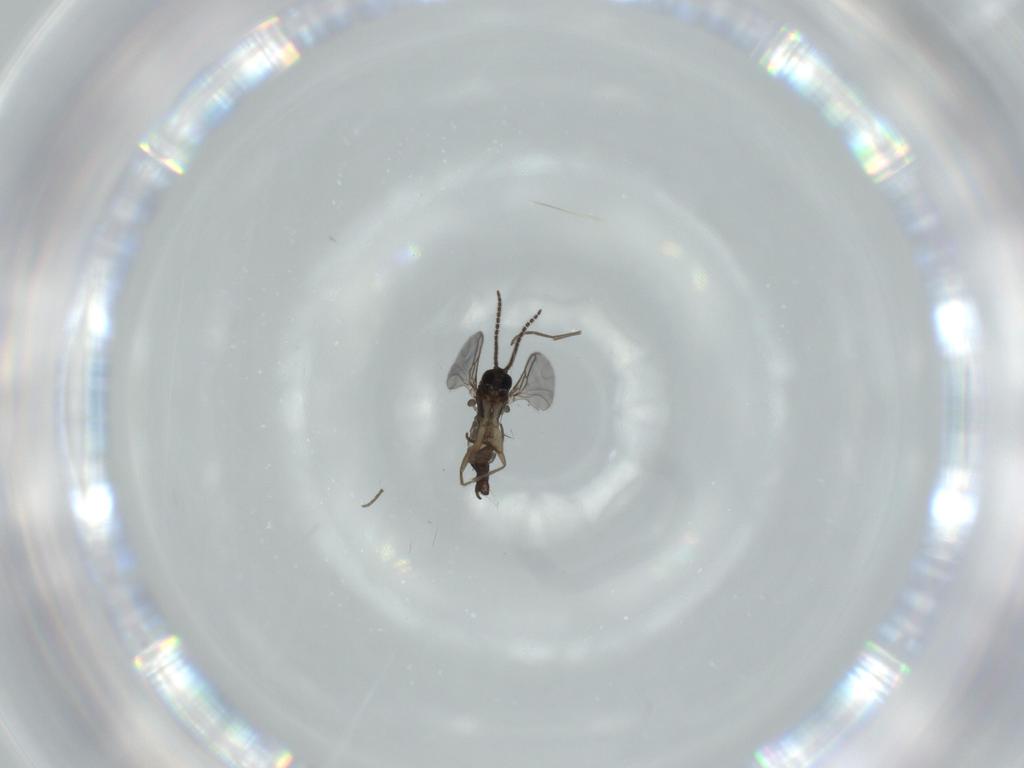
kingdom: Animalia
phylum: Arthropoda
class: Insecta
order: Diptera
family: Sciaridae
